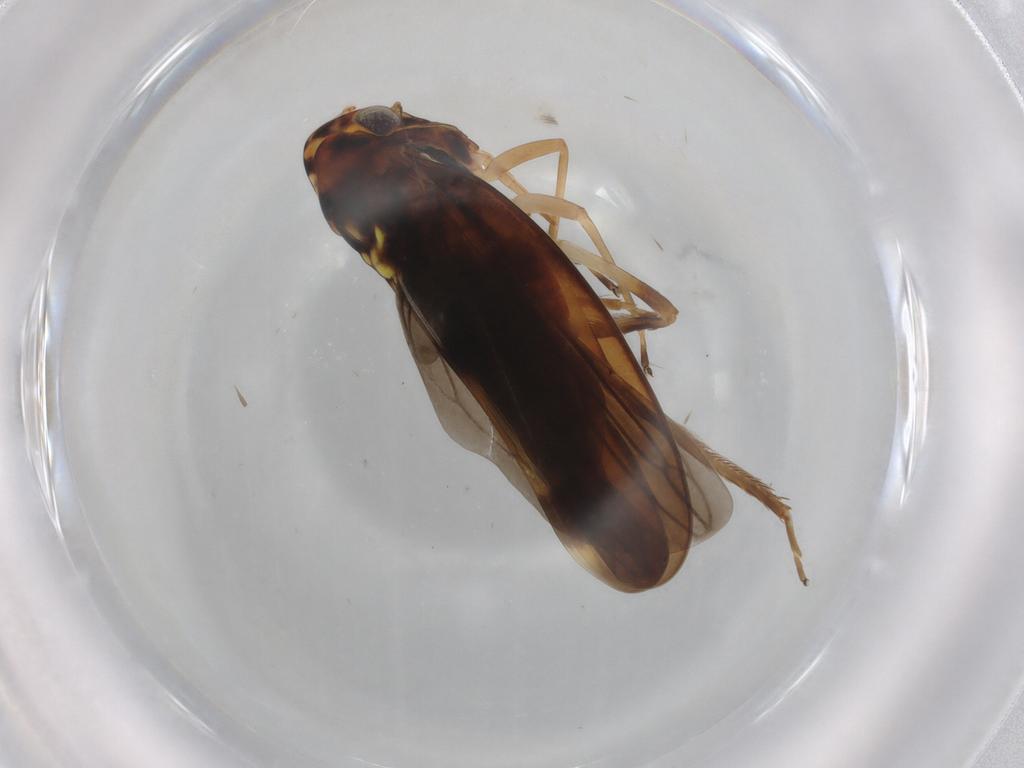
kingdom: Animalia
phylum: Arthropoda
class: Insecta
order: Hemiptera
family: Cicadellidae
